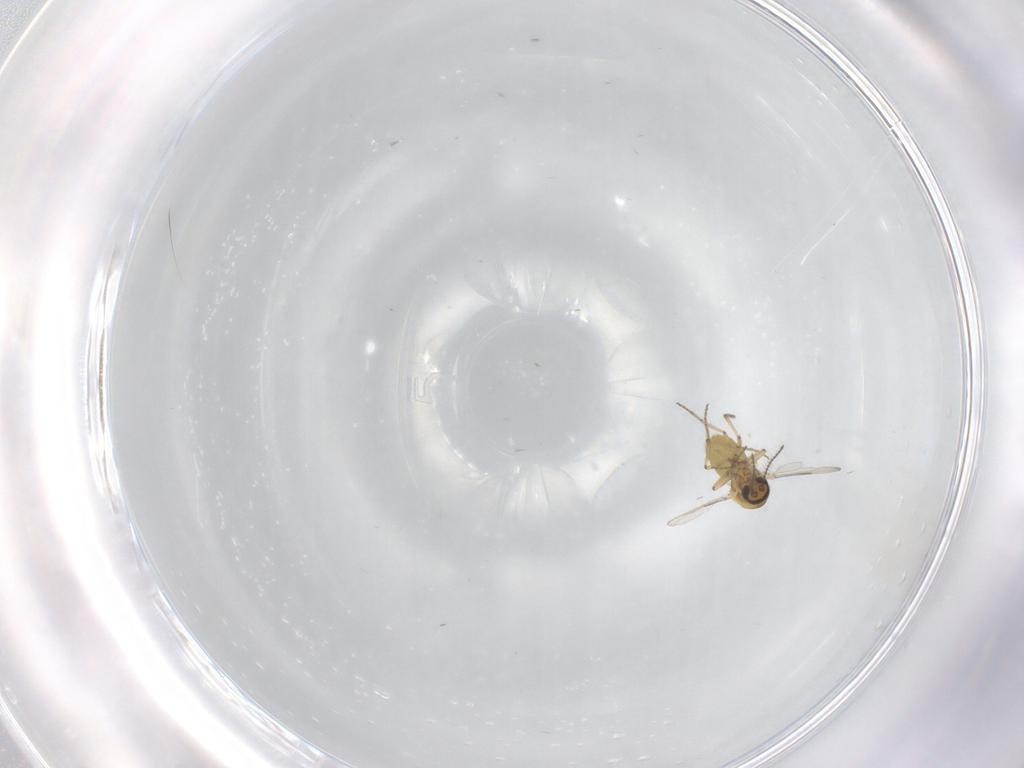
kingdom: Animalia
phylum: Arthropoda
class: Insecta
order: Diptera
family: Ceratopogonidae
